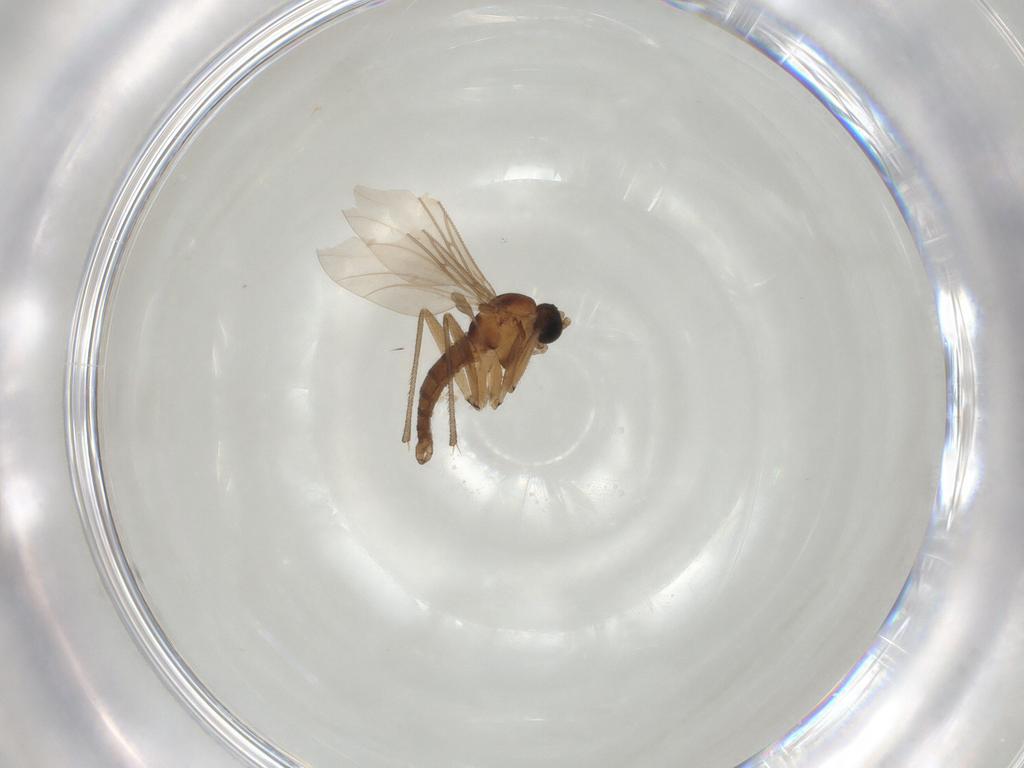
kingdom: Animalia
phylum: Arthropoda
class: Insecta
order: Diptera
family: Sciaridae
